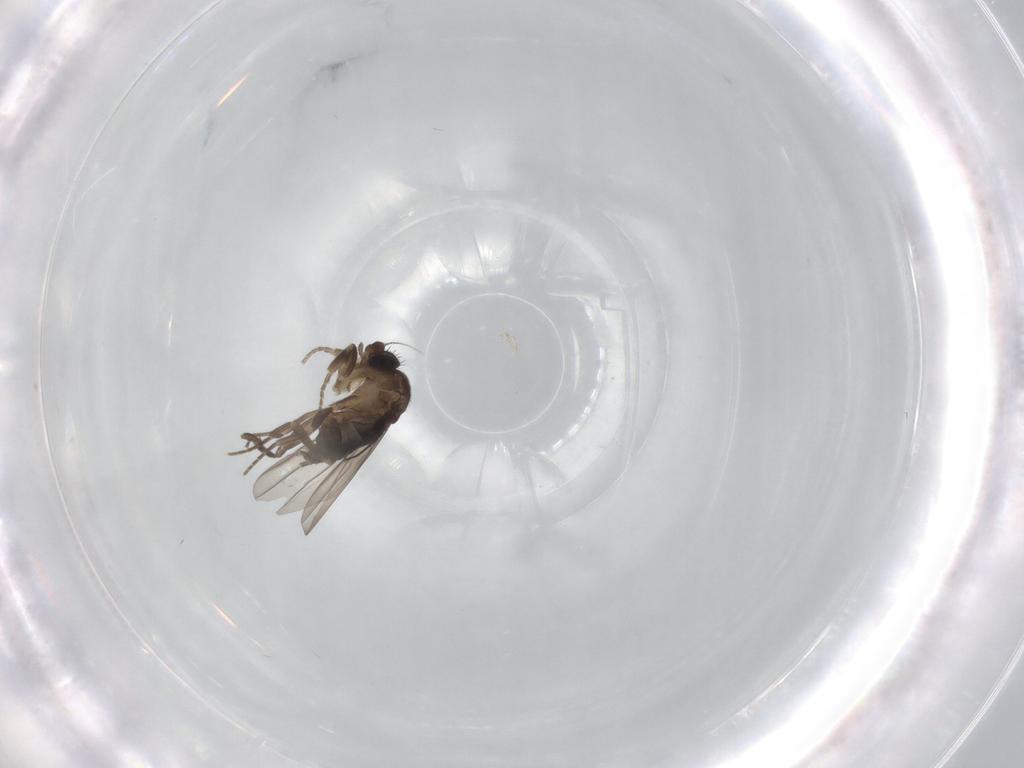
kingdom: Animalia
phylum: Arthropoda
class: Insecta
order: Diptera
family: Phoridae
